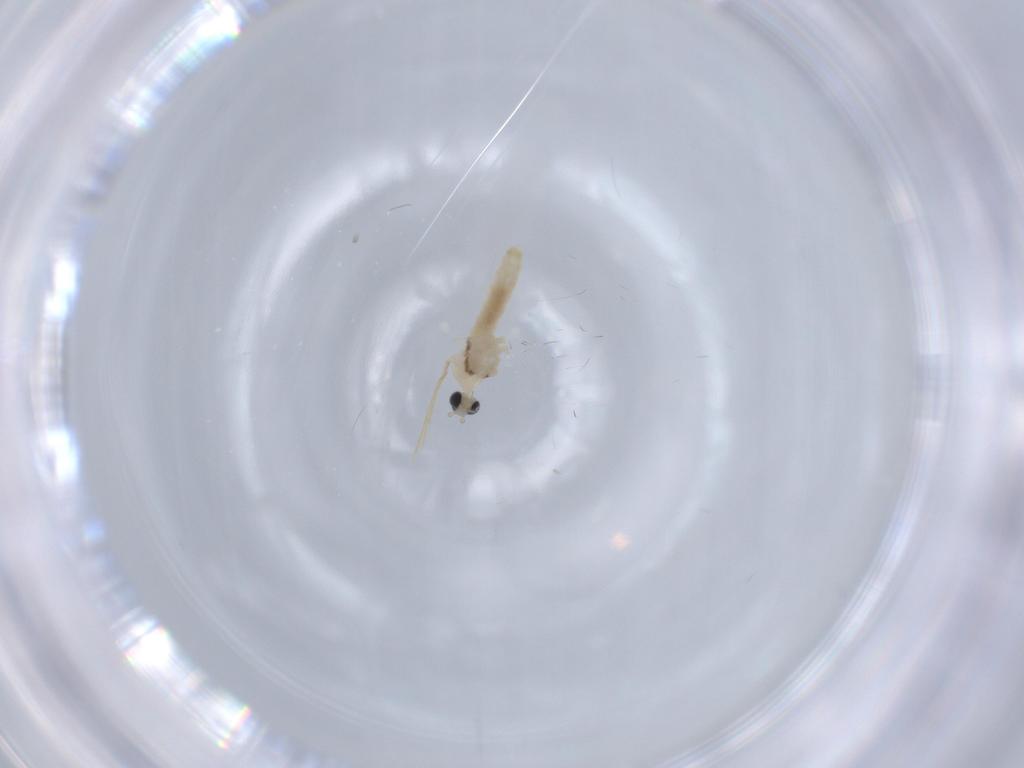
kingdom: Animalia
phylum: Arthropoda
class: Insecta
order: Diptera
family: Cecidomyiidae
